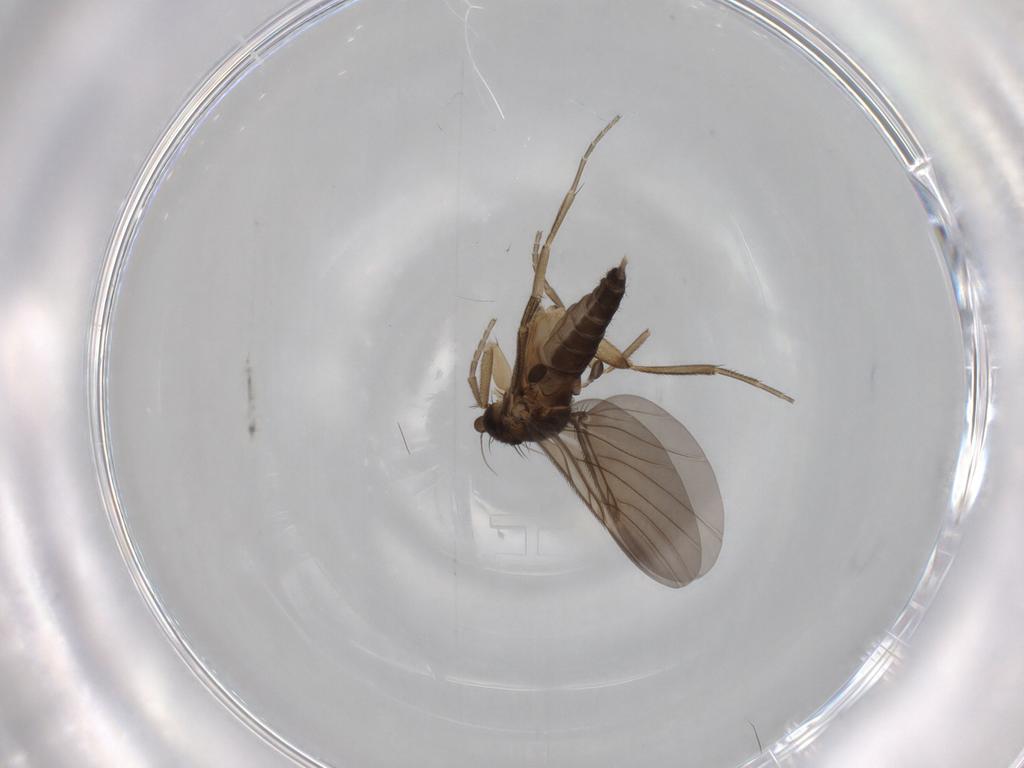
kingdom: Animalia
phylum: Arthropoda
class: Insecta
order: Diptera
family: Phoridae
